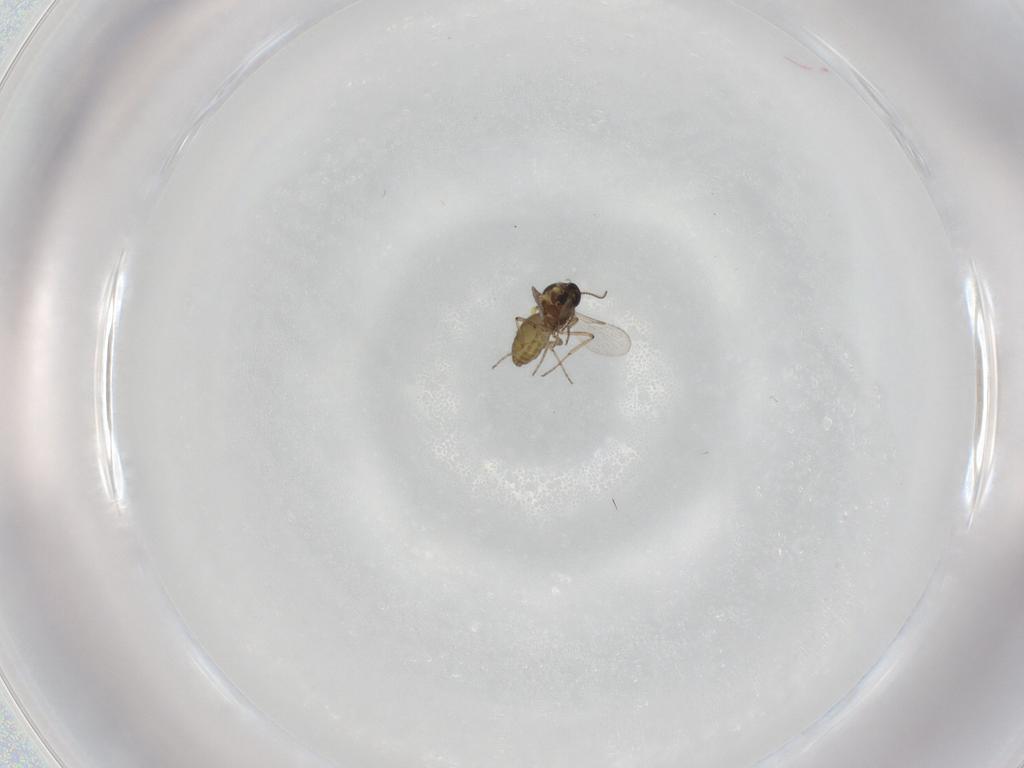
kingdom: Animalia
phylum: Arthropoda
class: Insecta
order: Diptera
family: Ceratopogonidae
